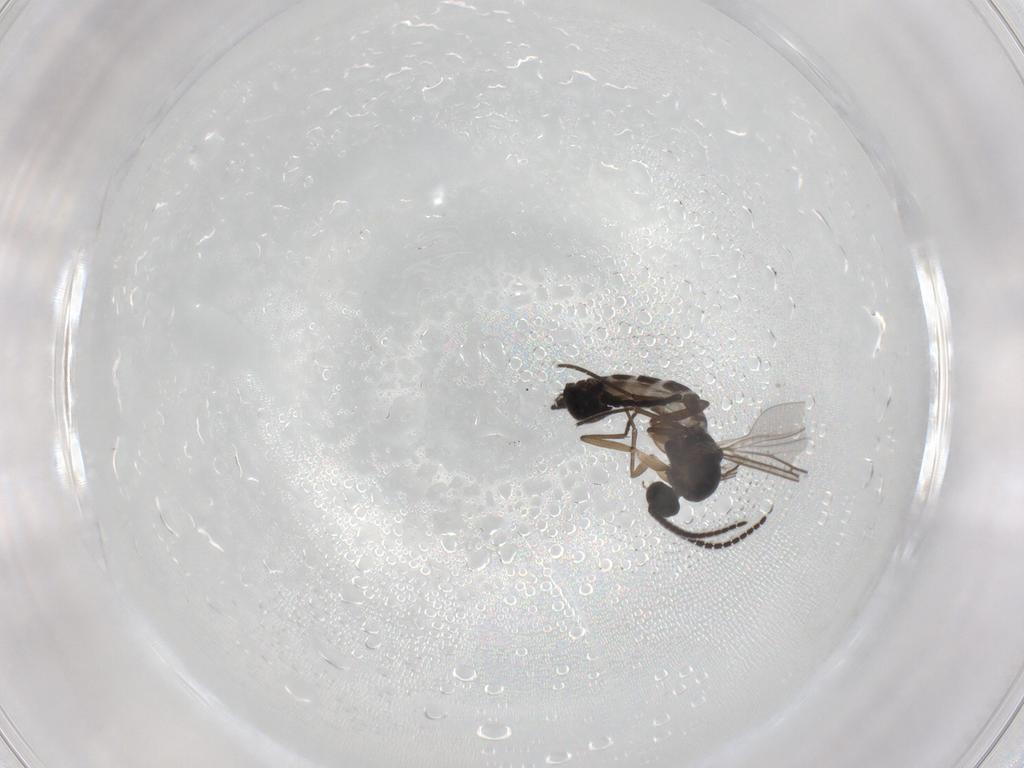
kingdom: Animalia
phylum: Arthropoda
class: Insecta
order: Diptera
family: Sciaridae
